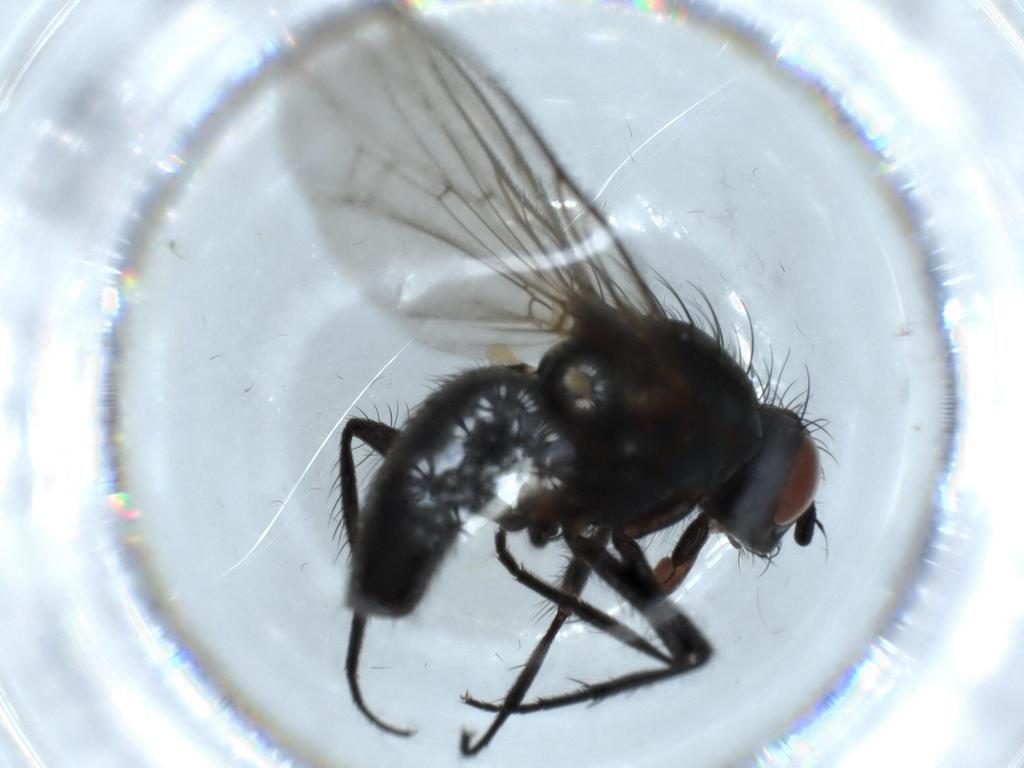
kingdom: Animalia
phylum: Arthropoda
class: Insecta
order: Diptera
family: Anthomyiidae
